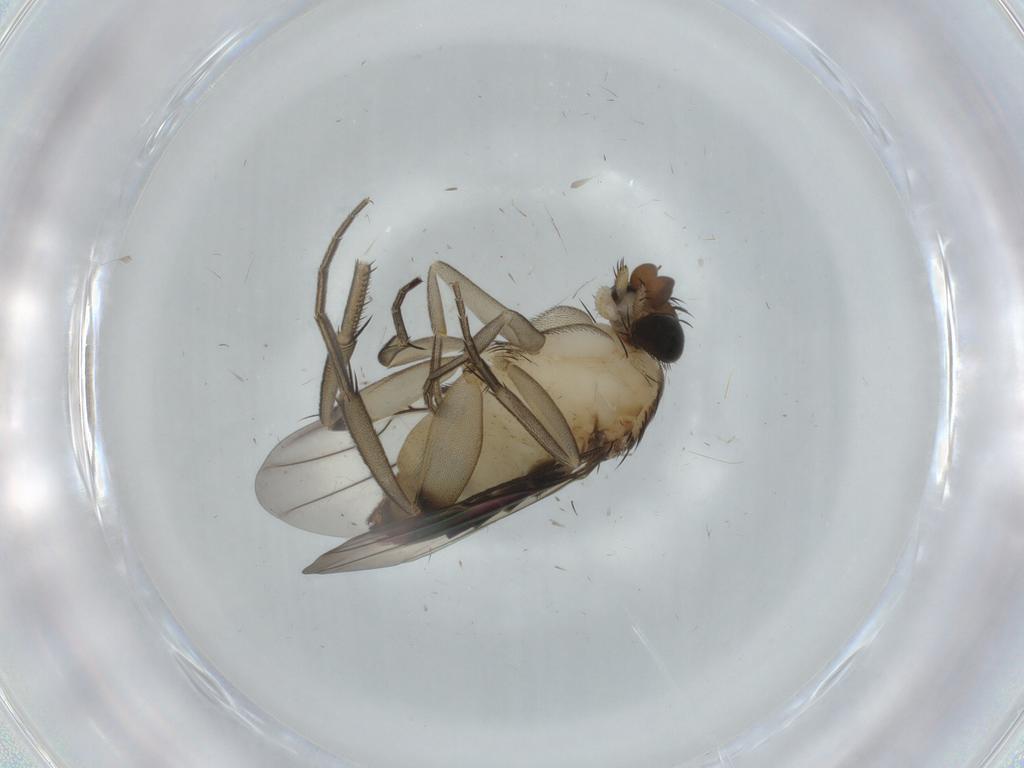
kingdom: Animalia
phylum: Arthropoda
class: Insecta
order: Diptera
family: Phoridae
